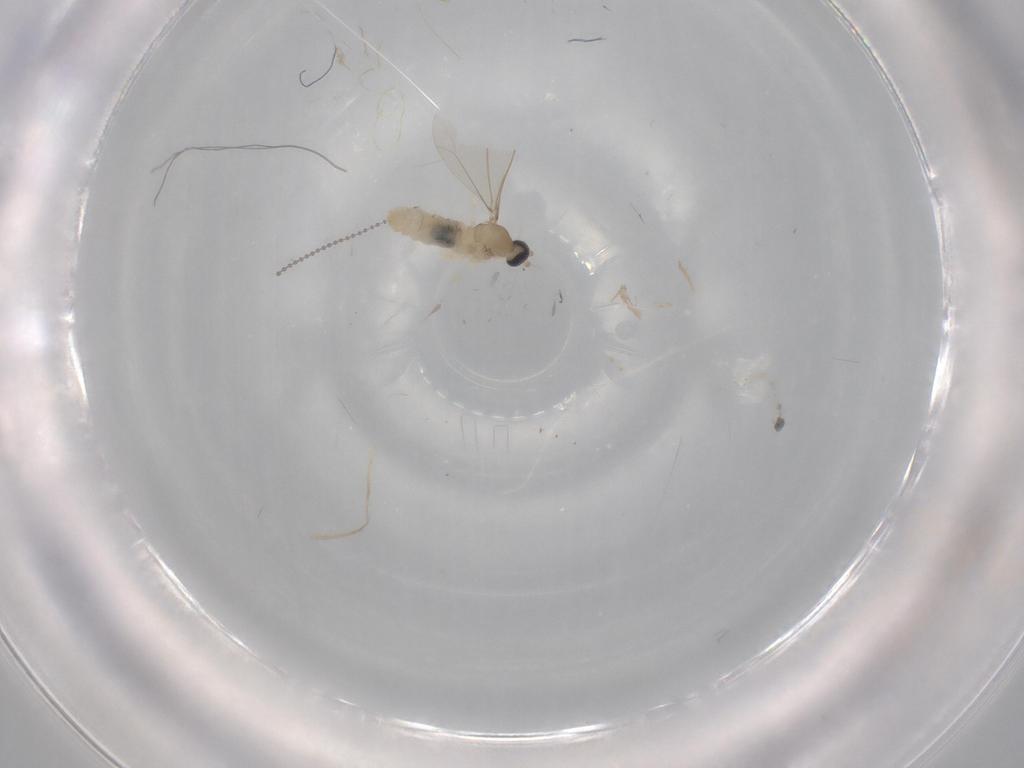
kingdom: Animalia
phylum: Arthropoda
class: Insecta
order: Diptera
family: Cecidomyiidae
